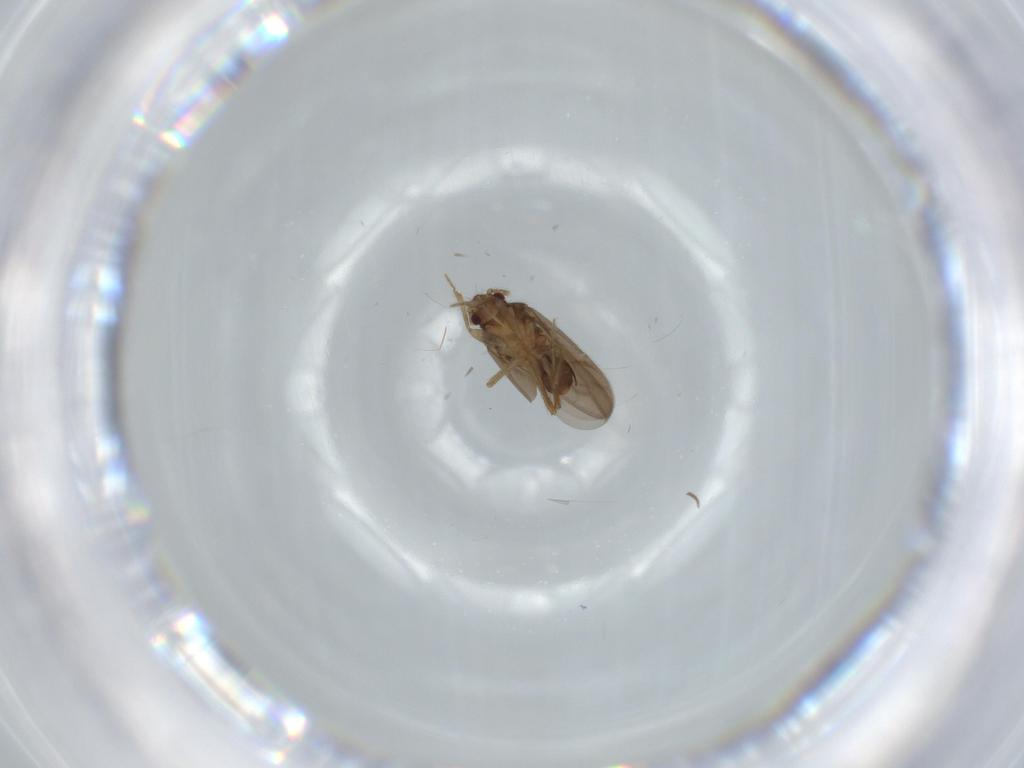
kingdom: Animalia
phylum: Arthropoda
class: Insecta
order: Hemiptera
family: Ceratocombidae
